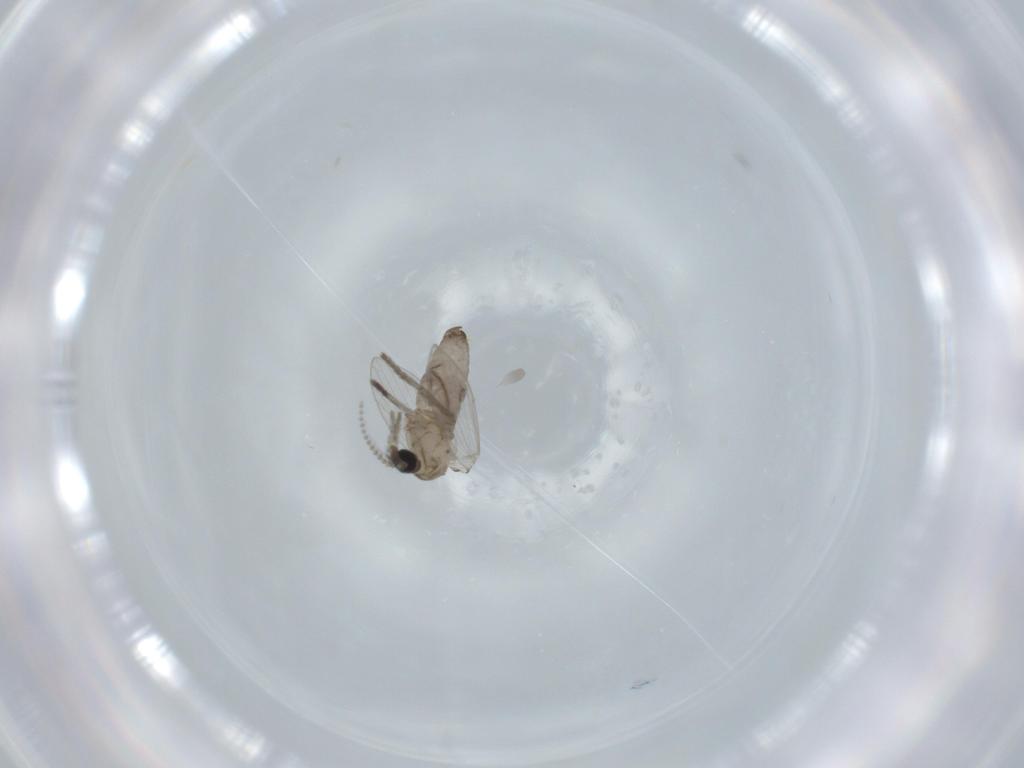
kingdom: Animalia
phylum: Arthropoda
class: Insecta
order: Diptera
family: Psychodidae
